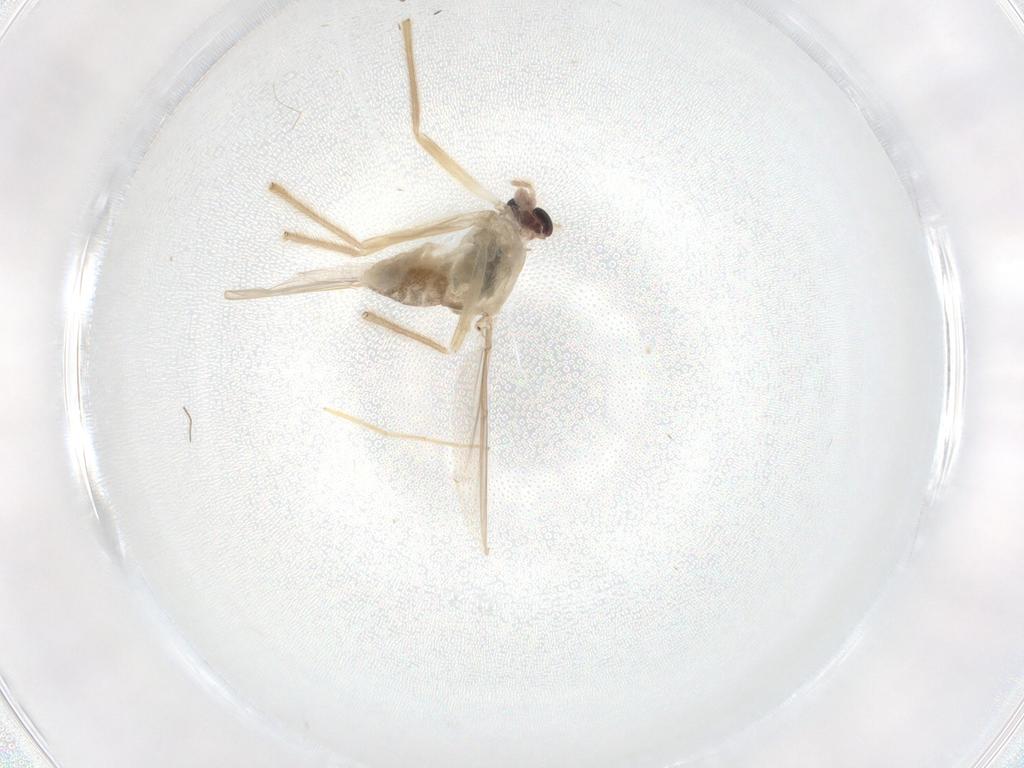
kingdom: Animalia
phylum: Arthropoda
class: Insecta
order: Diptera
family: Chironomidae
